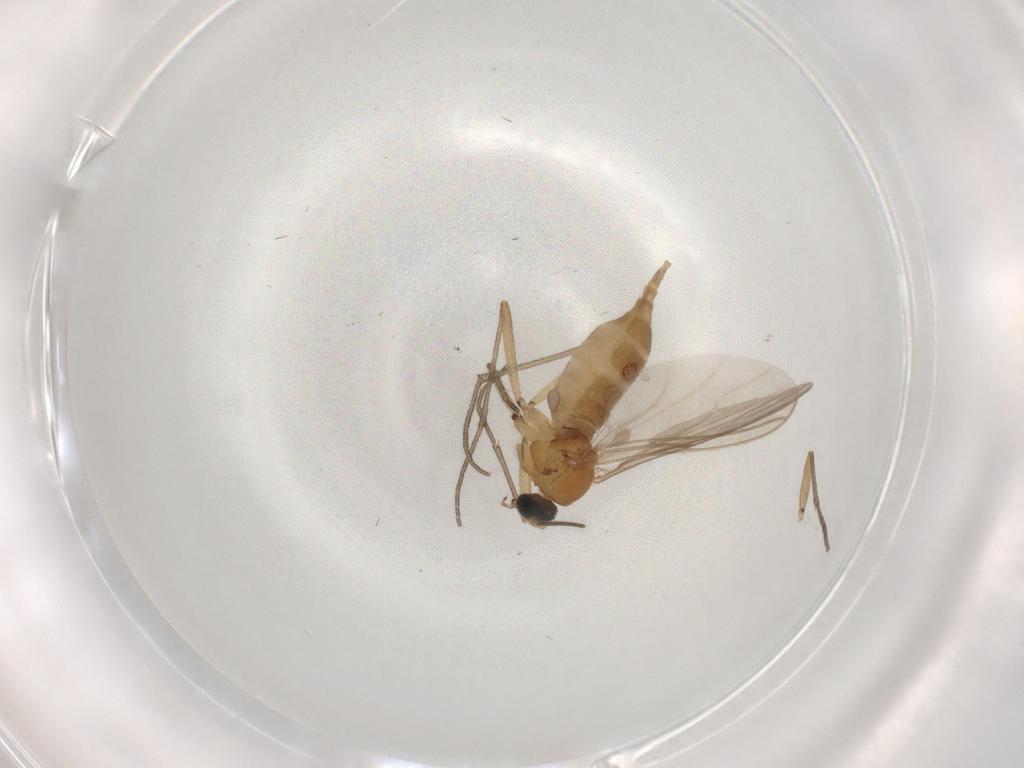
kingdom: Animalia
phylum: Arthropoda
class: Insecta
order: Diptera
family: Sciaridae
